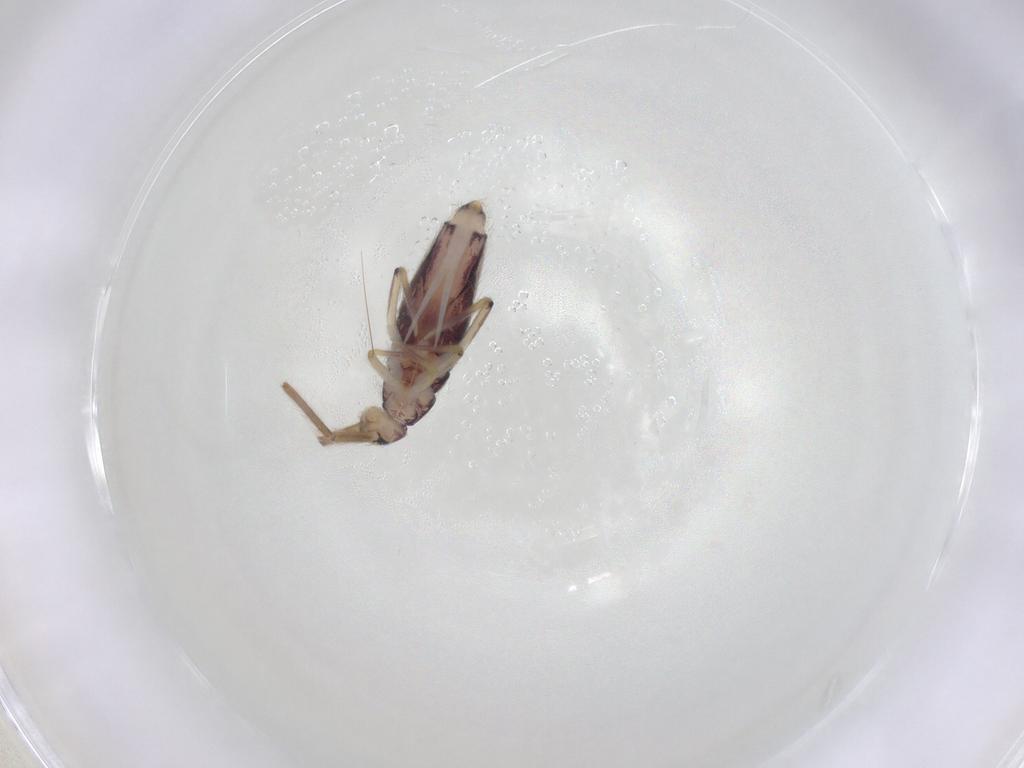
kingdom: Animalia
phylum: Arthropoda
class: Collembola
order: Entomobryomorpha
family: Entomobryidae
